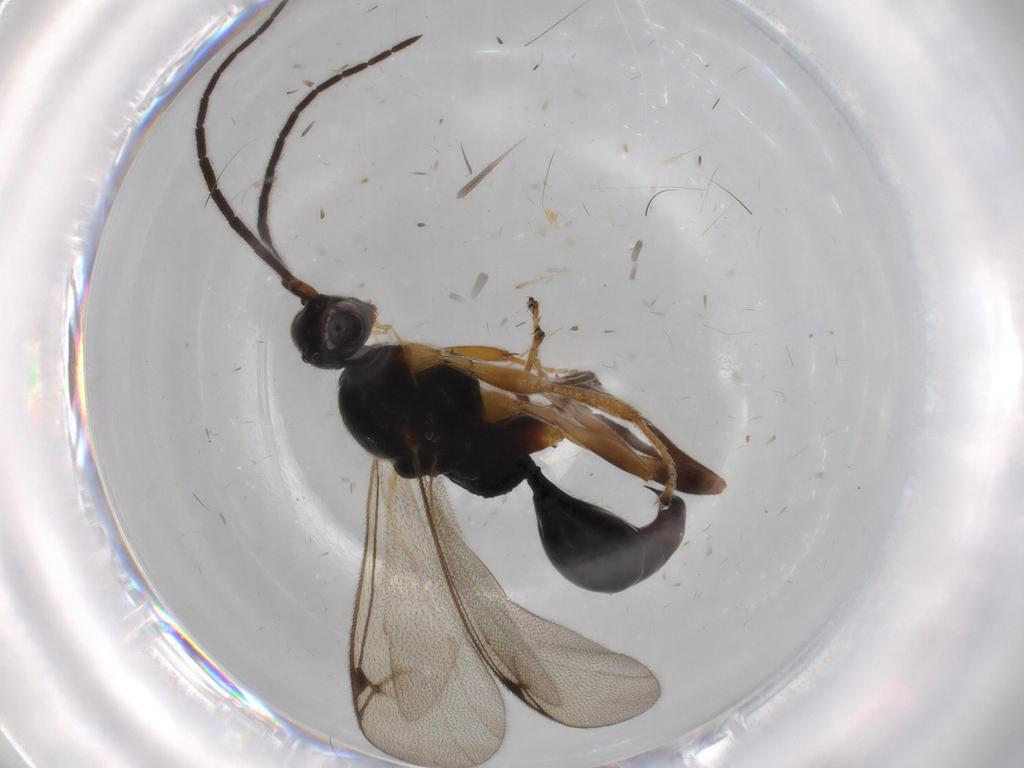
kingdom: Animalia
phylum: Arthropoda
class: Insecta
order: Hymenoptera
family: Proctotrupidae
